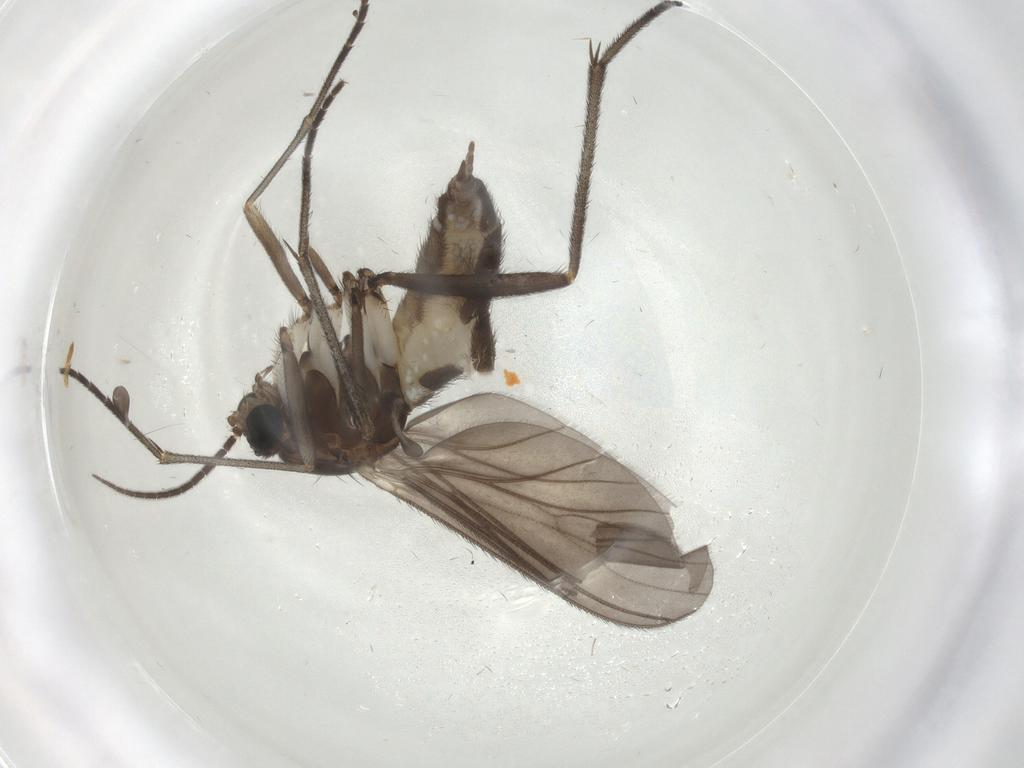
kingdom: Animalia
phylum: Arthropoda
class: Insecta
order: Diptera
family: Sciaridae
